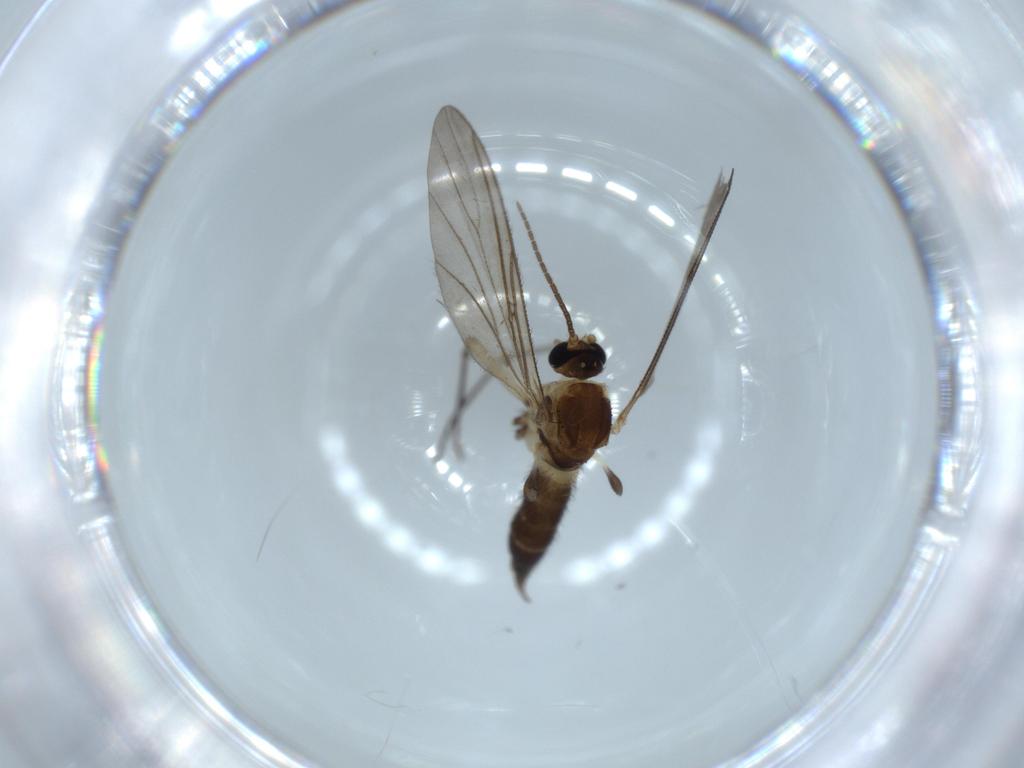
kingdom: Animalia
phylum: Arthropoda
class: Insecta
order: Diptera
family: Sciaridae
